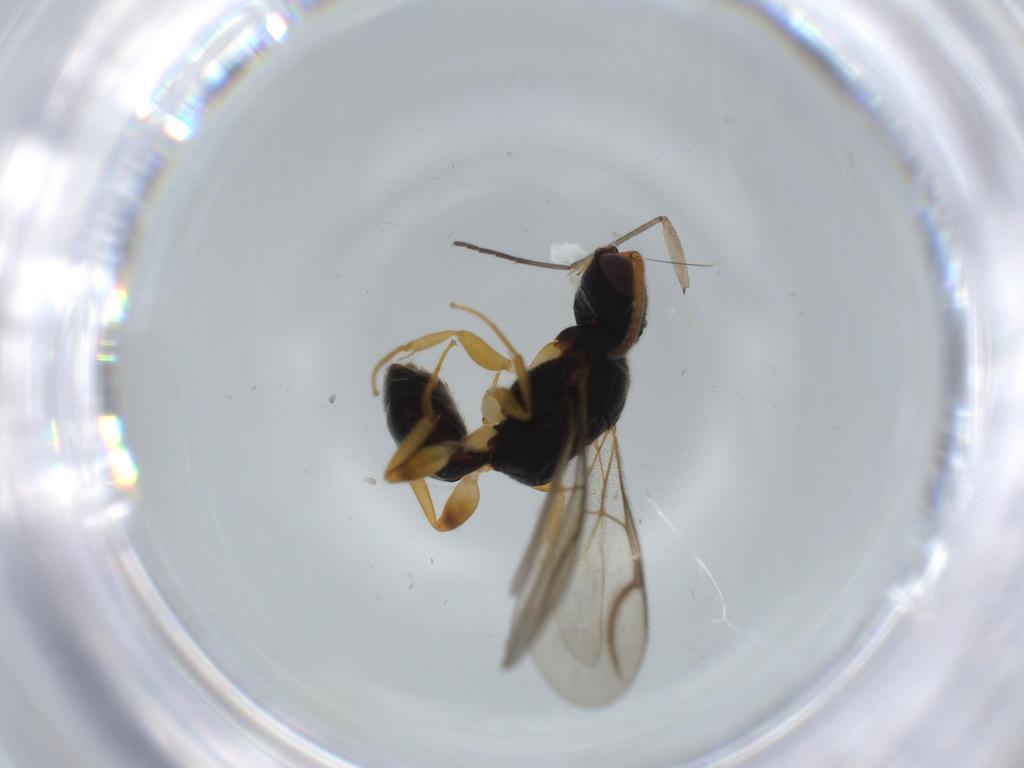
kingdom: Animalia
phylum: Arthropoda
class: Insecta
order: Hymenoptera
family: Bethylidae
